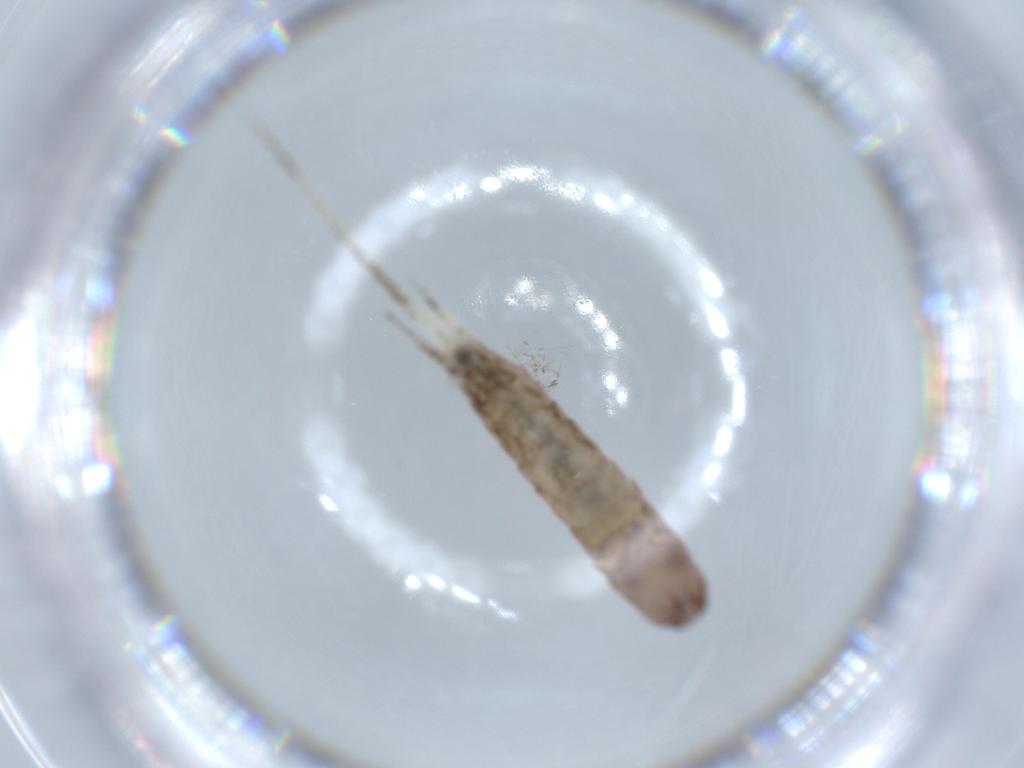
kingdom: Animalia
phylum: Arthropoda
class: Insecta
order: Archaeognatha
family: Machilidae
